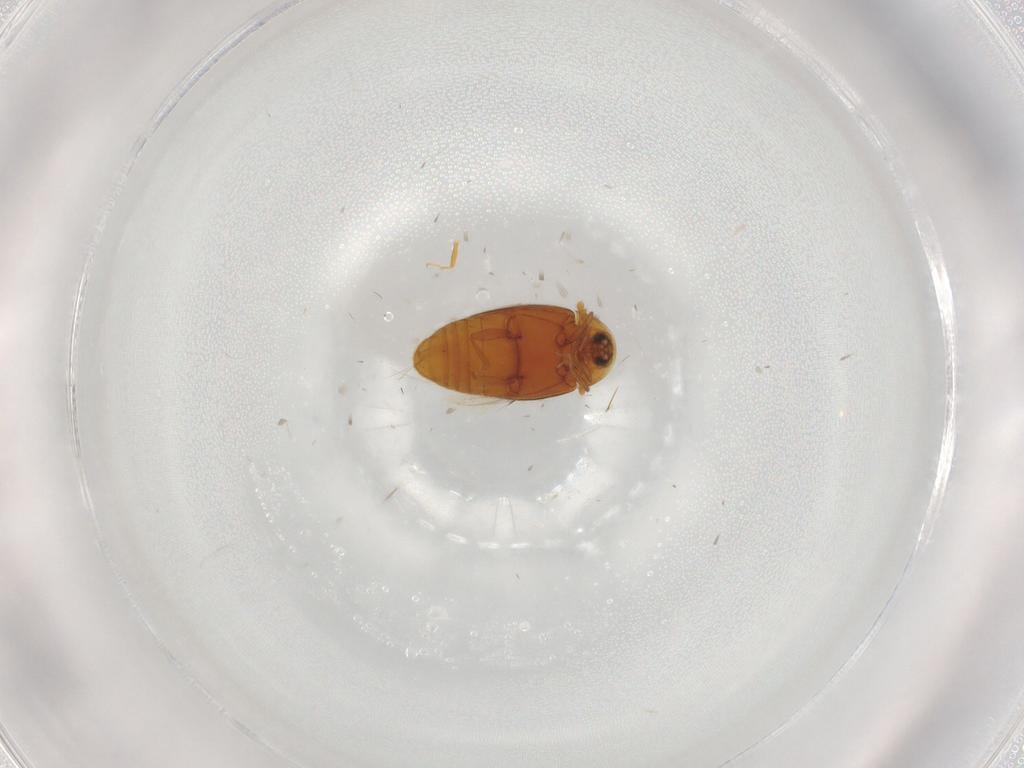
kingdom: Animalia
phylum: Arthropoda
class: Insecta
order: Coleoptera
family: Corylophidae
